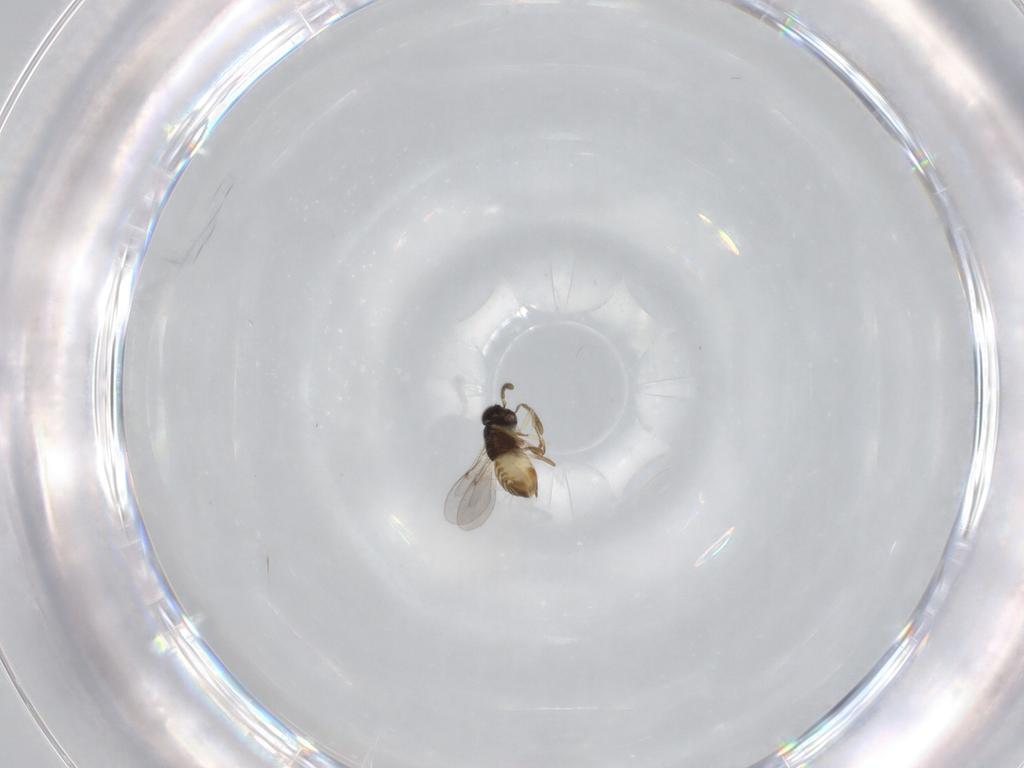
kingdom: Animalia
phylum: Arthropoda
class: Insecta
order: Hymenoptera
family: Encyrtidae
